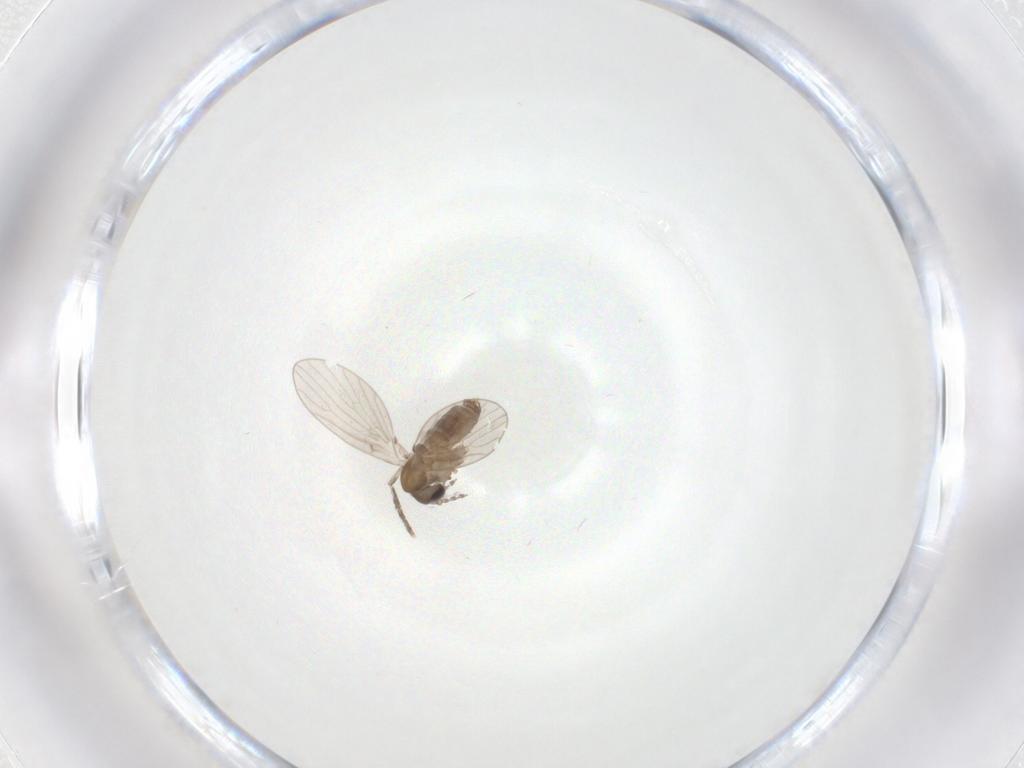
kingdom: Animalia
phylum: Arthropoda
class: Insecta
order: Diptera
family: Psychodidae
